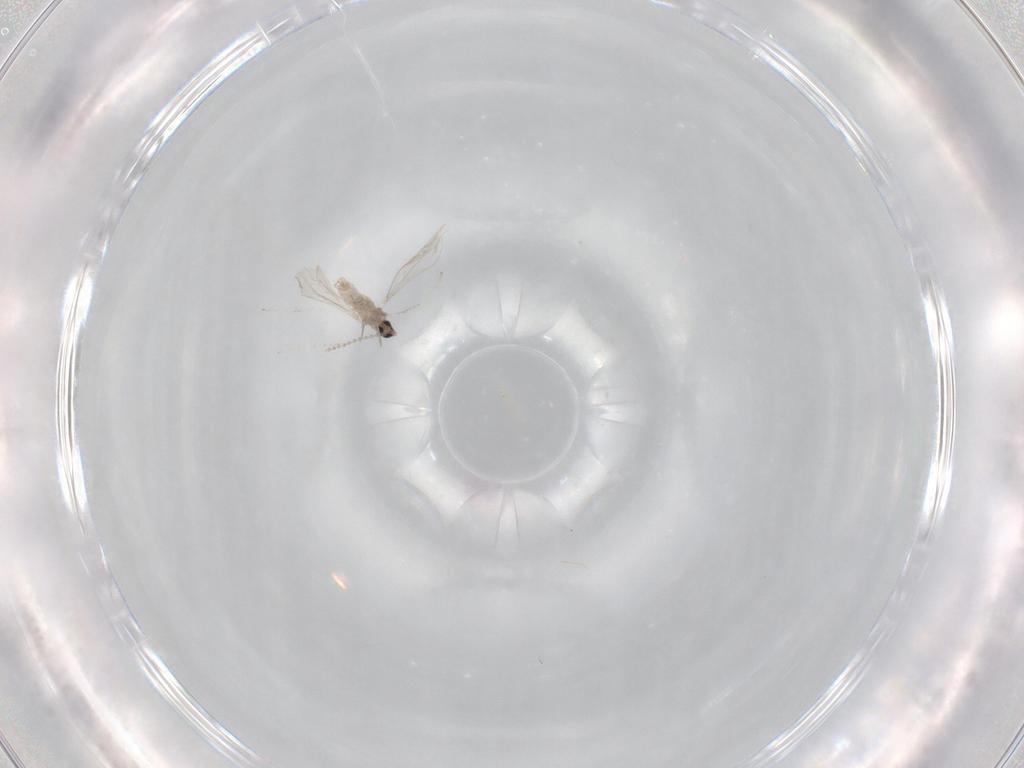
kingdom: Animalia
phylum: Arthropoda
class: Insecta
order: Diptera
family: Cecidomyiidae
